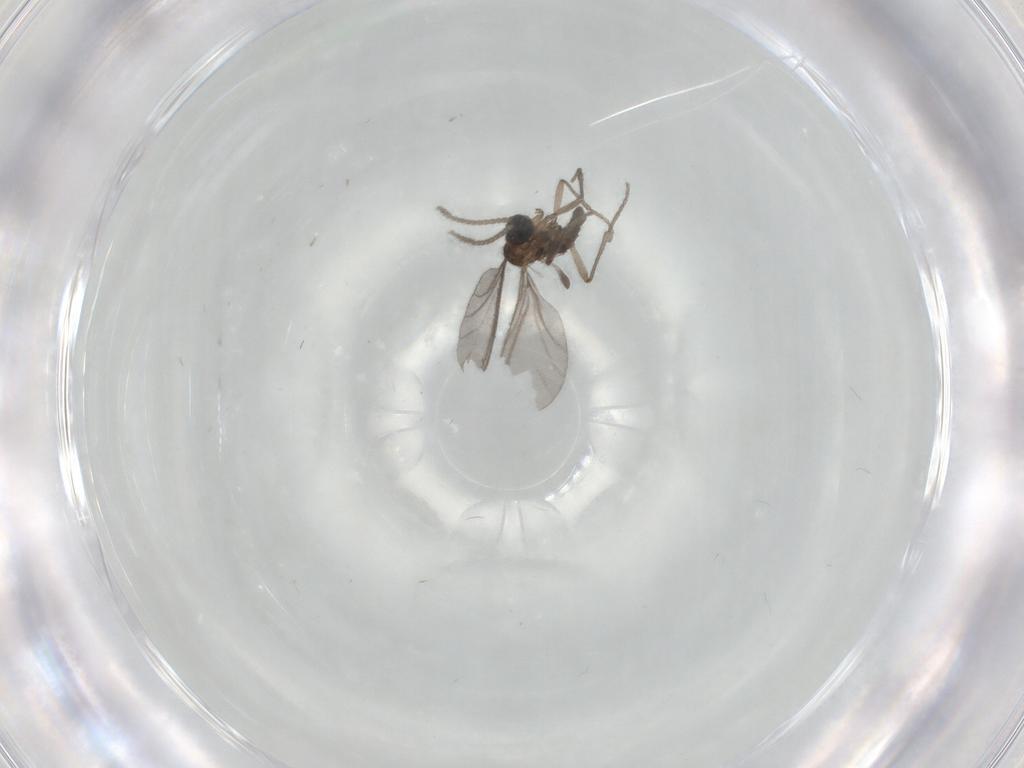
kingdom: Animalia
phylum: Arthropoda
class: Insecta
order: Diptera
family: Sciaridae
